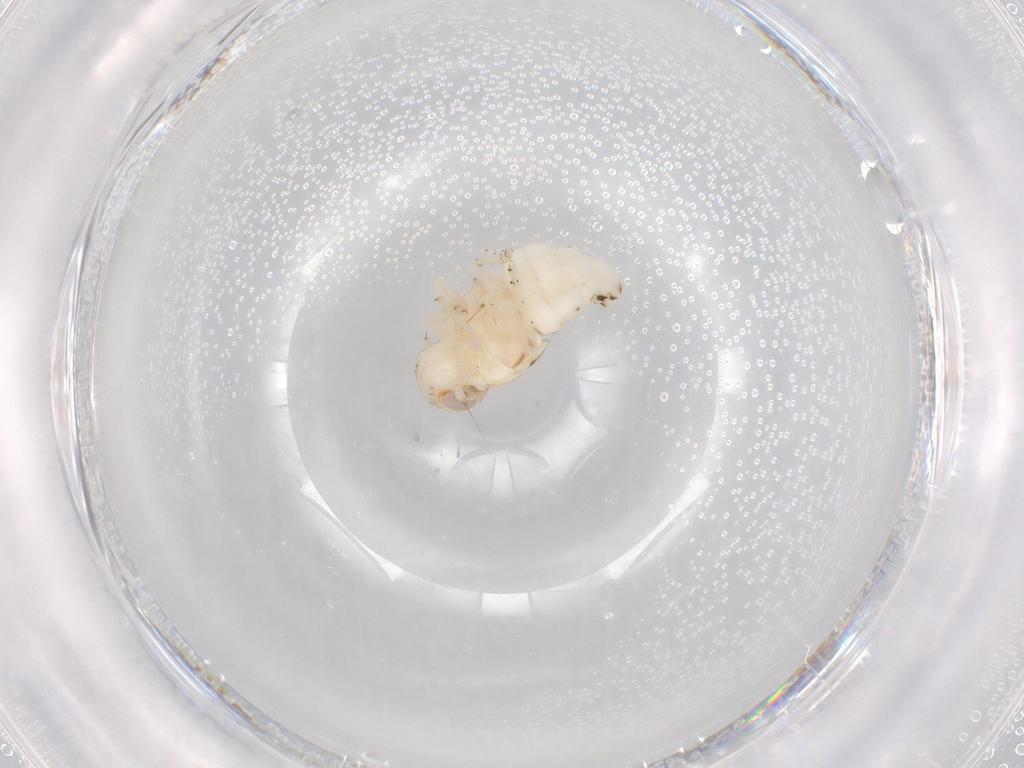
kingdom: Animalia
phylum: Arthropoda
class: Insecta
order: Hemiptera
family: Nogodinidae
